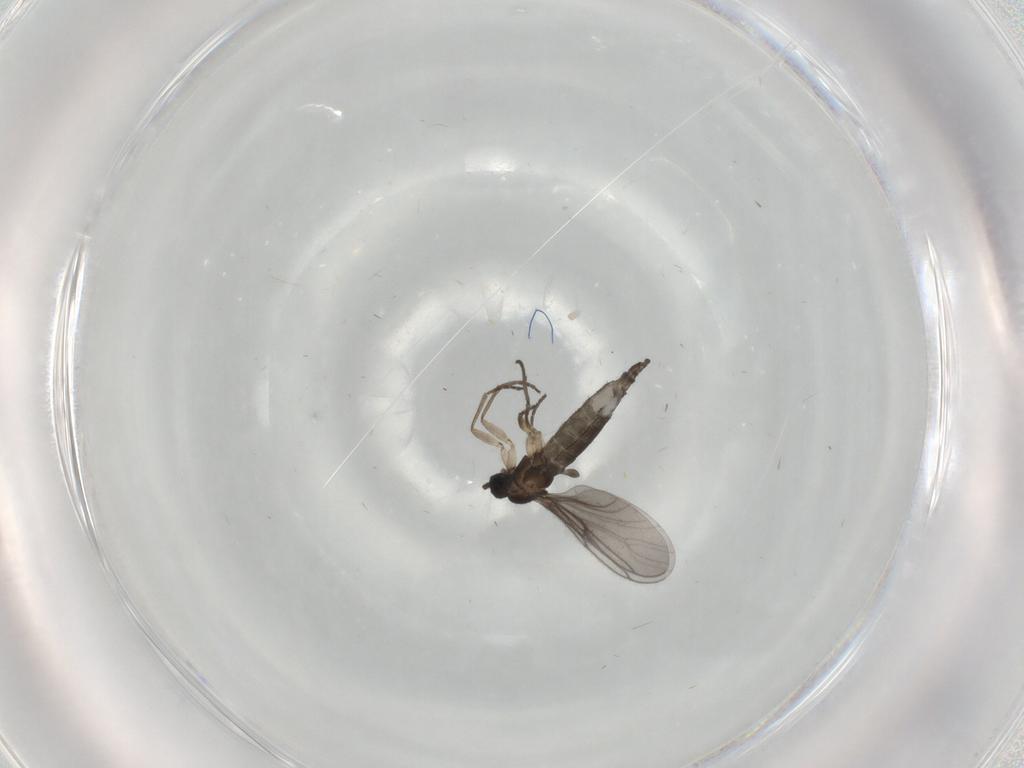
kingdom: Animalia
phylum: Arthropoda
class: Insecta
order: Diptera
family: Sciaridae
